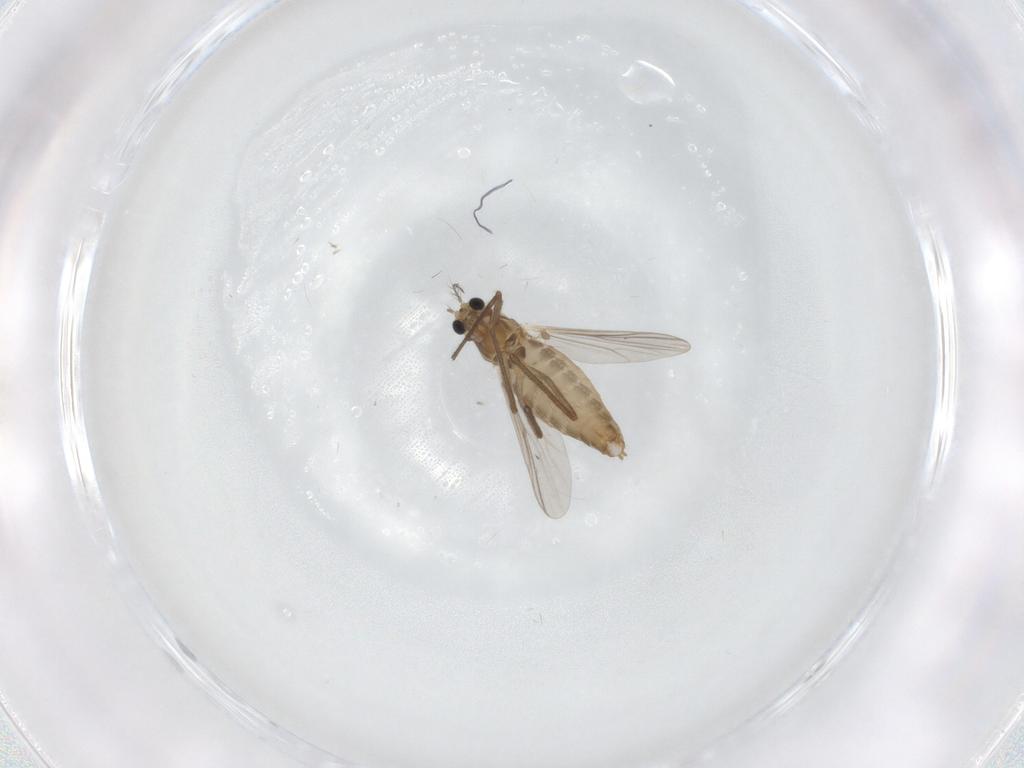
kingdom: Animalia
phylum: Arthropoda
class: Insecta
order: Diptera
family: Chironomidae
